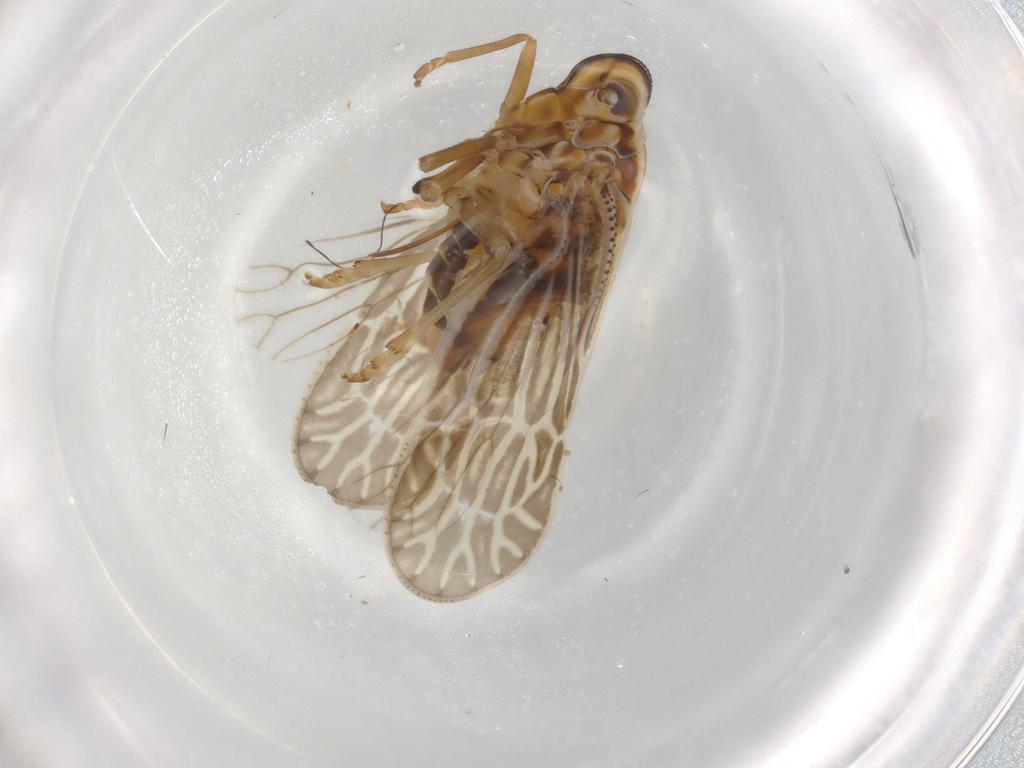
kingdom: Animalia
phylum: Arthropoda
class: Insecta
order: Hemiptera
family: Meenoplidae
